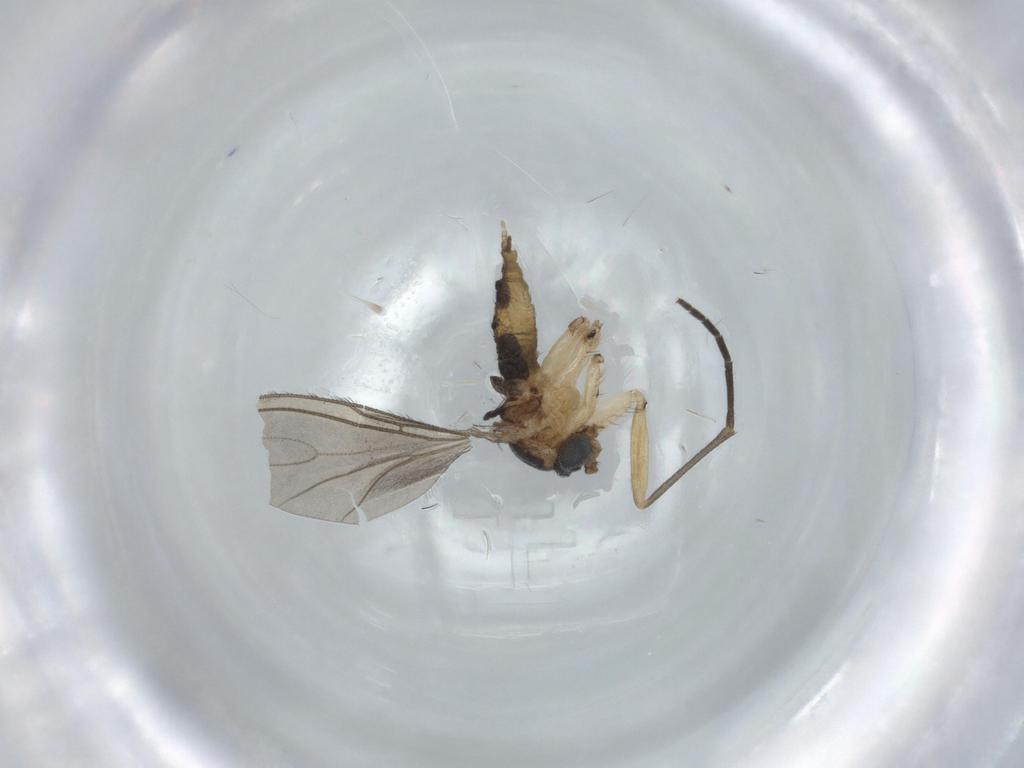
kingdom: Animalia
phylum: Arthropoda
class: Insecta
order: Diptera
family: Sciaridae
